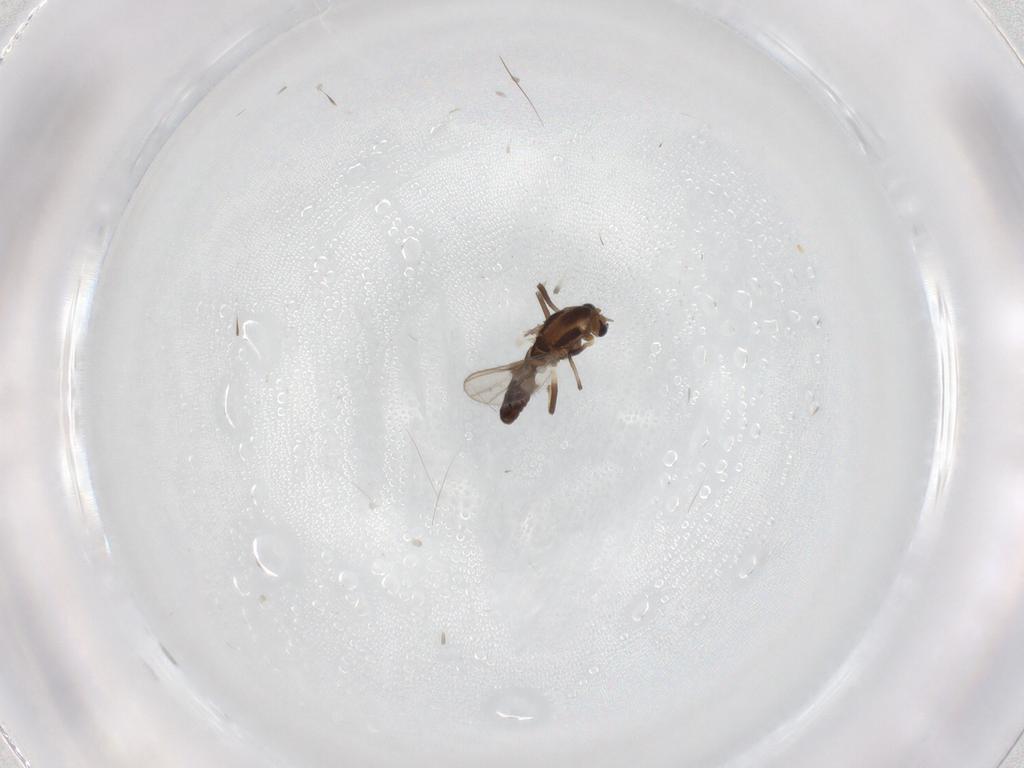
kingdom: Animalia
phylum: Arthropoda
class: Insecta
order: Diptera
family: Chironomidae
